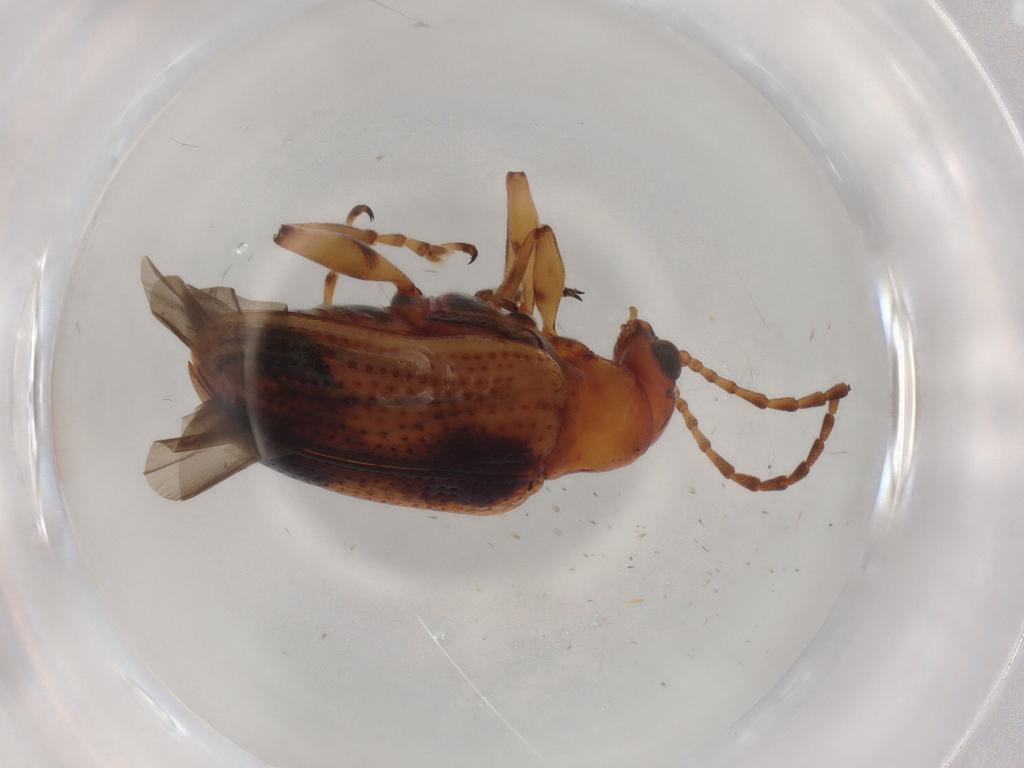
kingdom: Animalia
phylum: Arthropoda
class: Insecta
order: Coleoptera
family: Chrysomelidae
